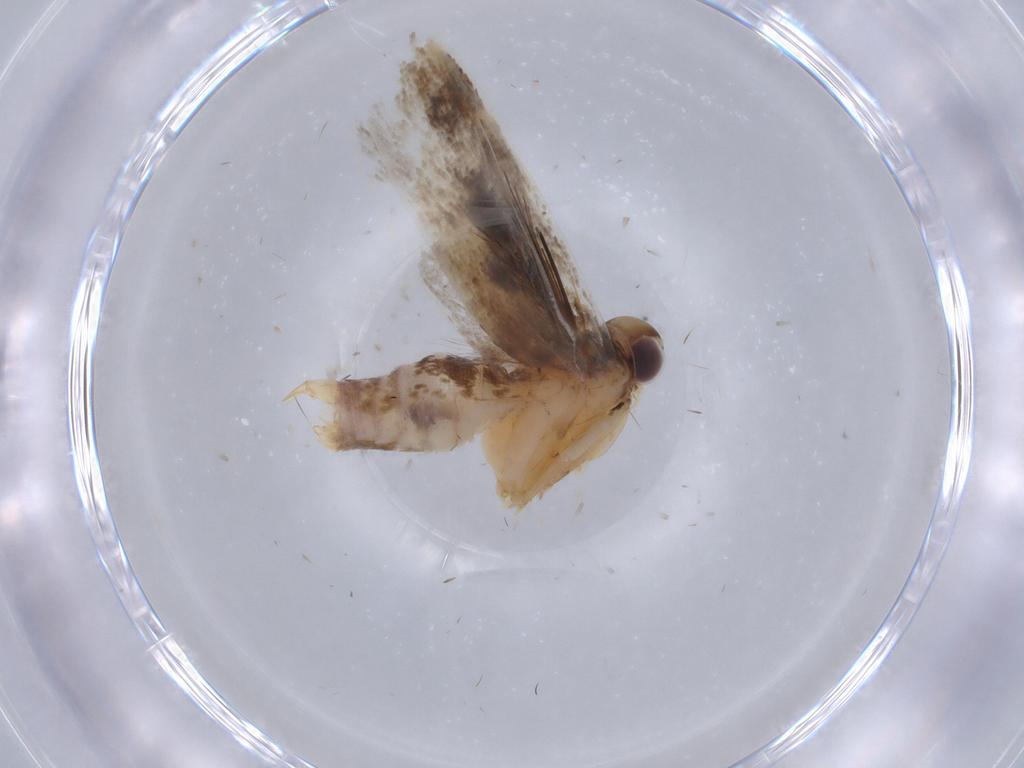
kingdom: Animalia
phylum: Arthropoda
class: Insecta
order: Lepidoptera
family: Gelechiidae
